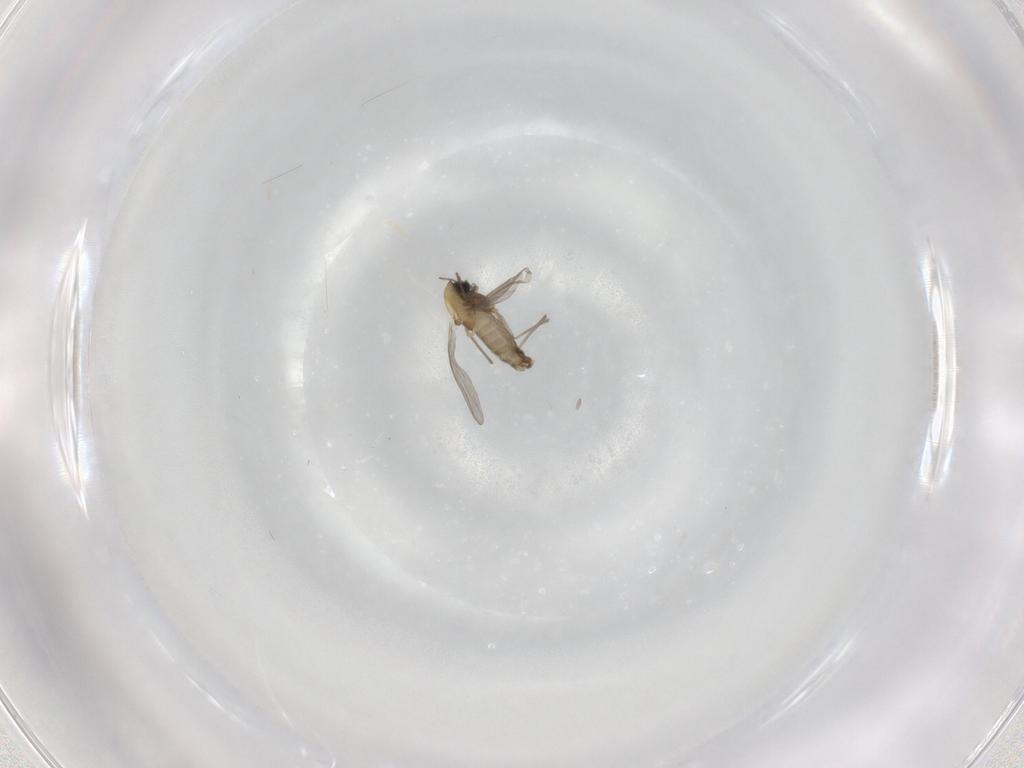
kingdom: Animalia
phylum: Arthropoda
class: Insecta
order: Diptera
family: Chironomidae
